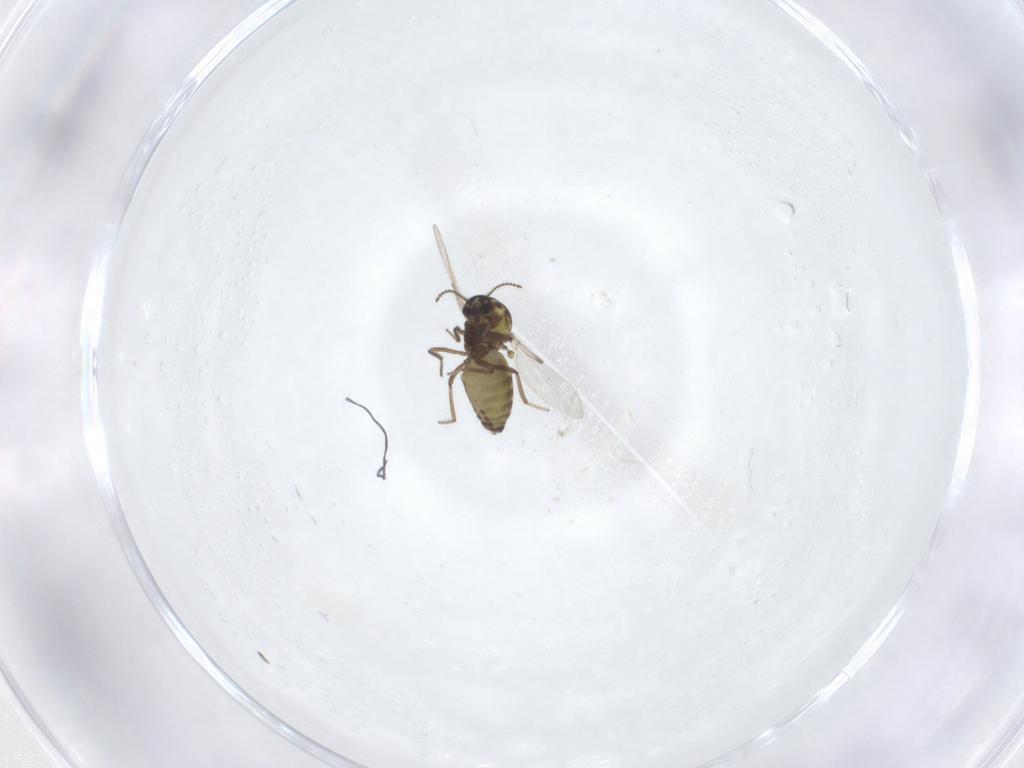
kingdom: Animalia
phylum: Arthropoda
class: Insecta
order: Diptera
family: Ceratopogonidae
